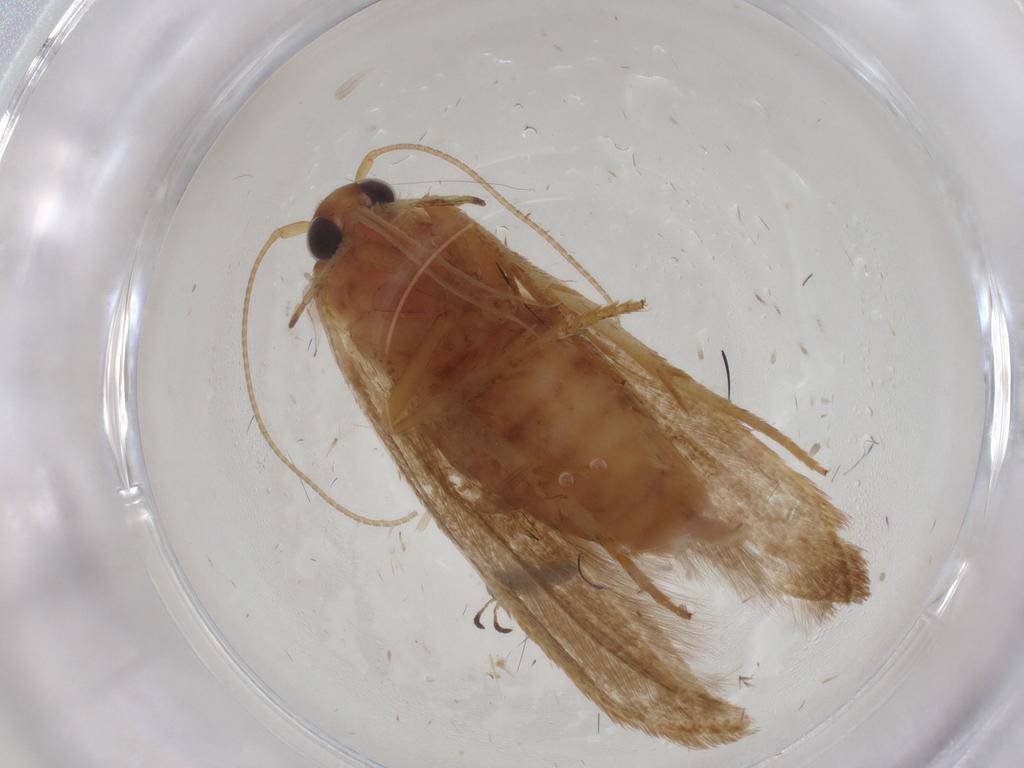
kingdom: Animalia
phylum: Arthropoda
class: Insecta
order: Lepidoptera
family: Blastobasidae
